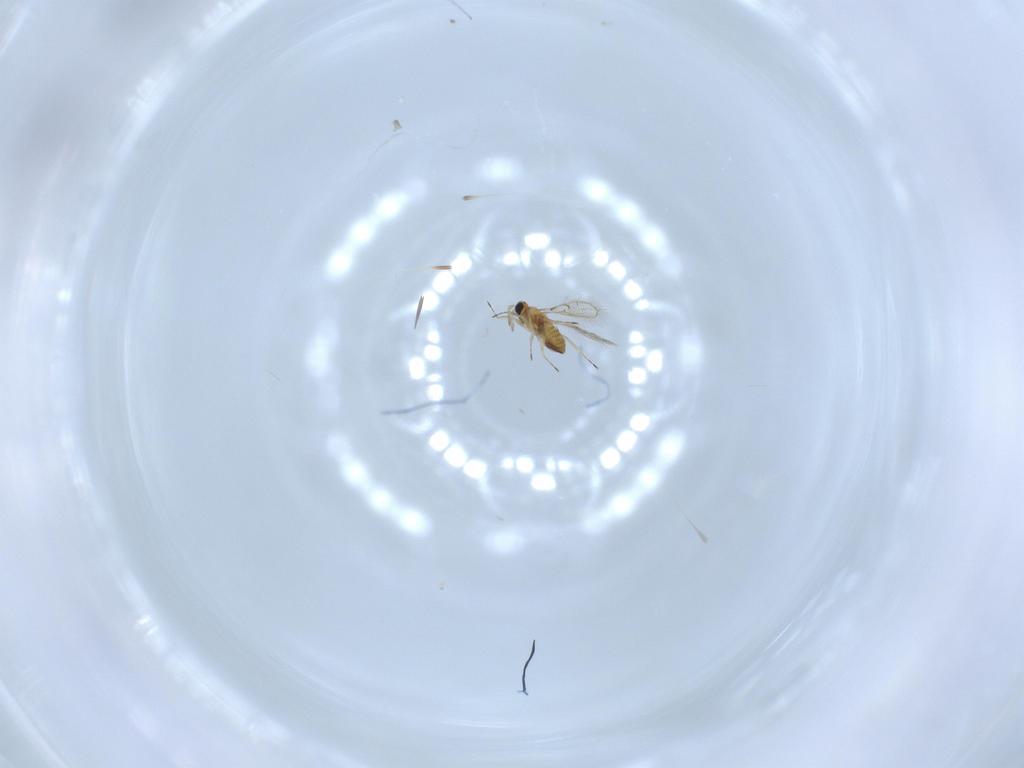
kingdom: Animalia
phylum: Arthropoda
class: Insecta
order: Hymenoptera
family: Trichogrammatidae
